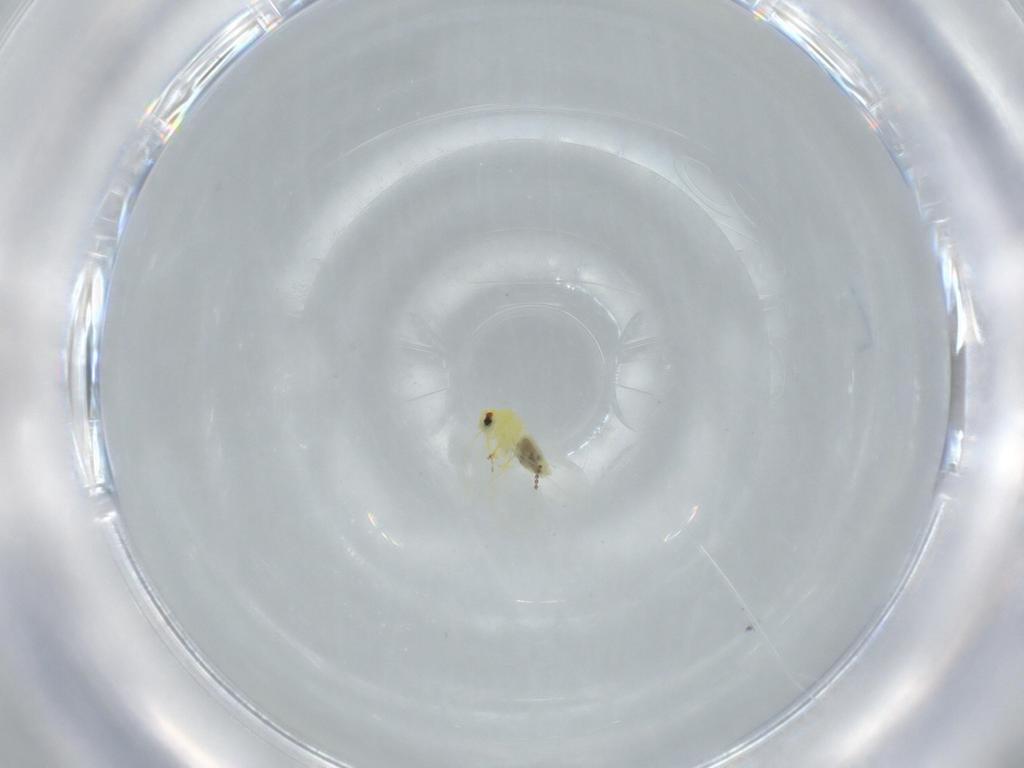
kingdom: Animalia
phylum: Arthropoda
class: Insecta
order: Hemiptera
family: Aleyrodidae
